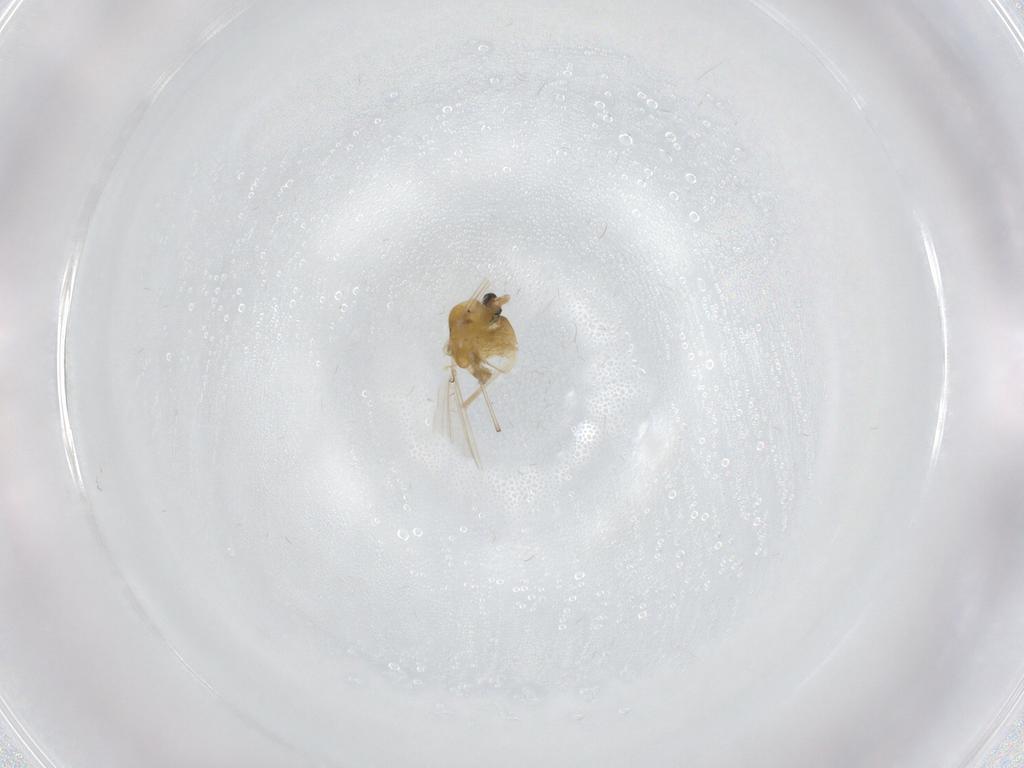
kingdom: Animalia
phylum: Arthropoda
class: Insecta
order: Diptera
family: Chironomidae
